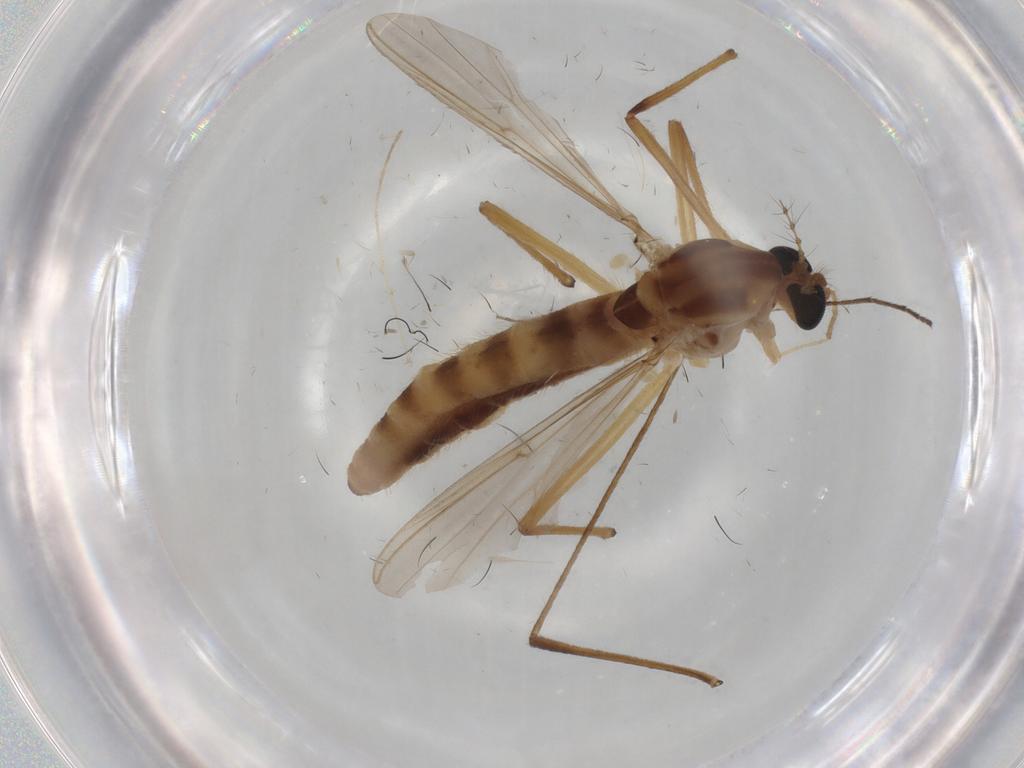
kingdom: Animalia
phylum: Arthropoda
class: Insecta
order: Diptera
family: Limoniidae
